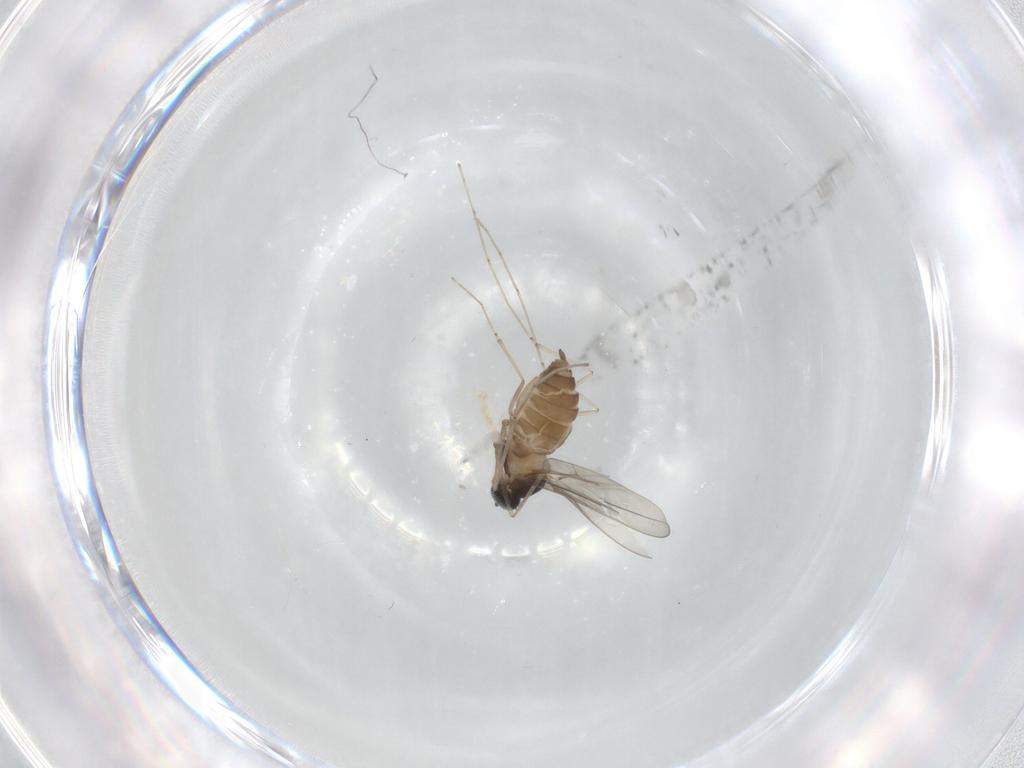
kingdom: Animalia
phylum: Arthropoda
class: Insecta
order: Diptera
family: Cecidomyiidae
